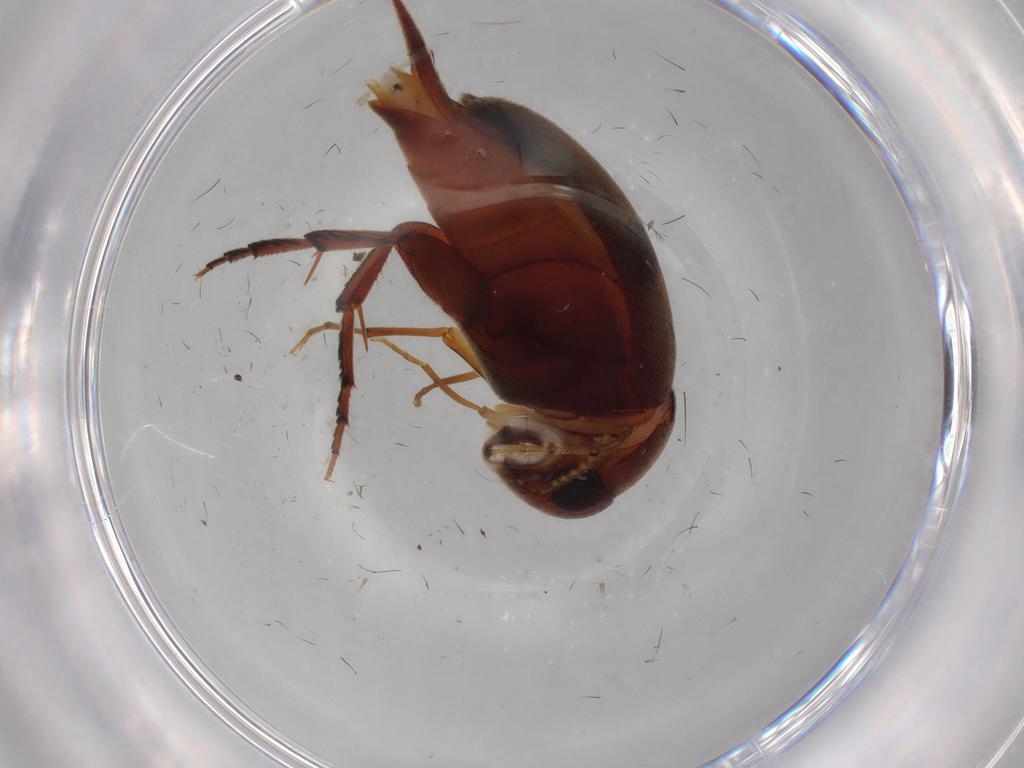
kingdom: Animalia
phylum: Arthropoda
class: Insecta
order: Coleoptera
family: Mordellidae
